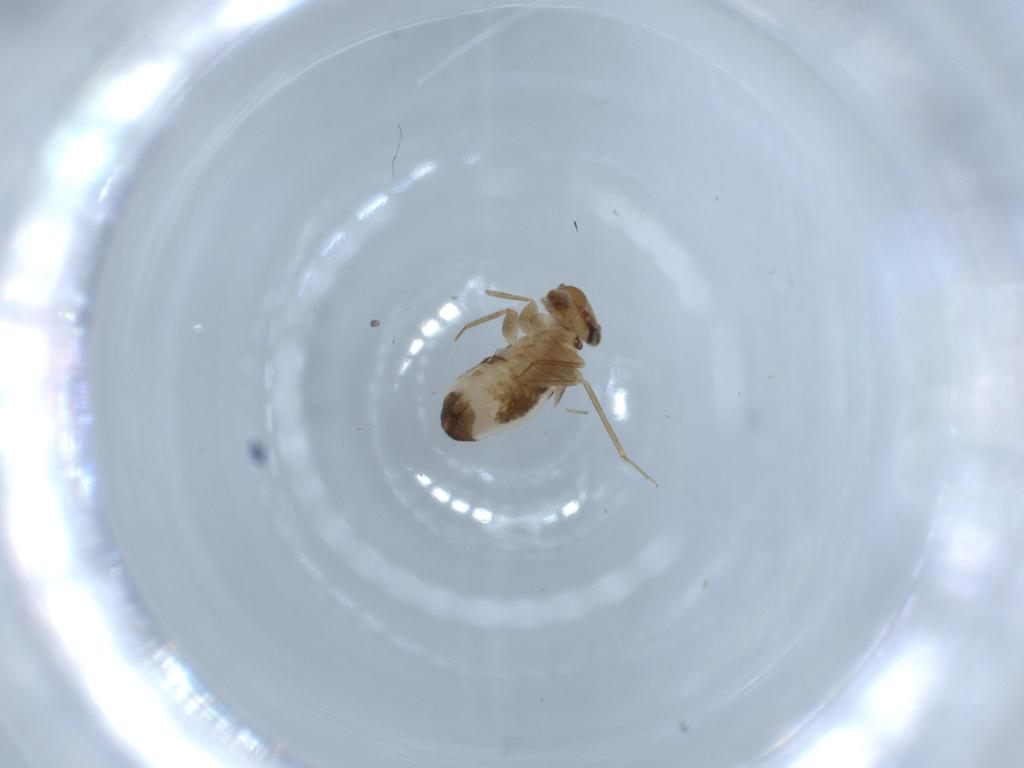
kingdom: Animalia
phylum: Arthropoda
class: Insecta
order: Psocodea
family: Lepidopsocidae
